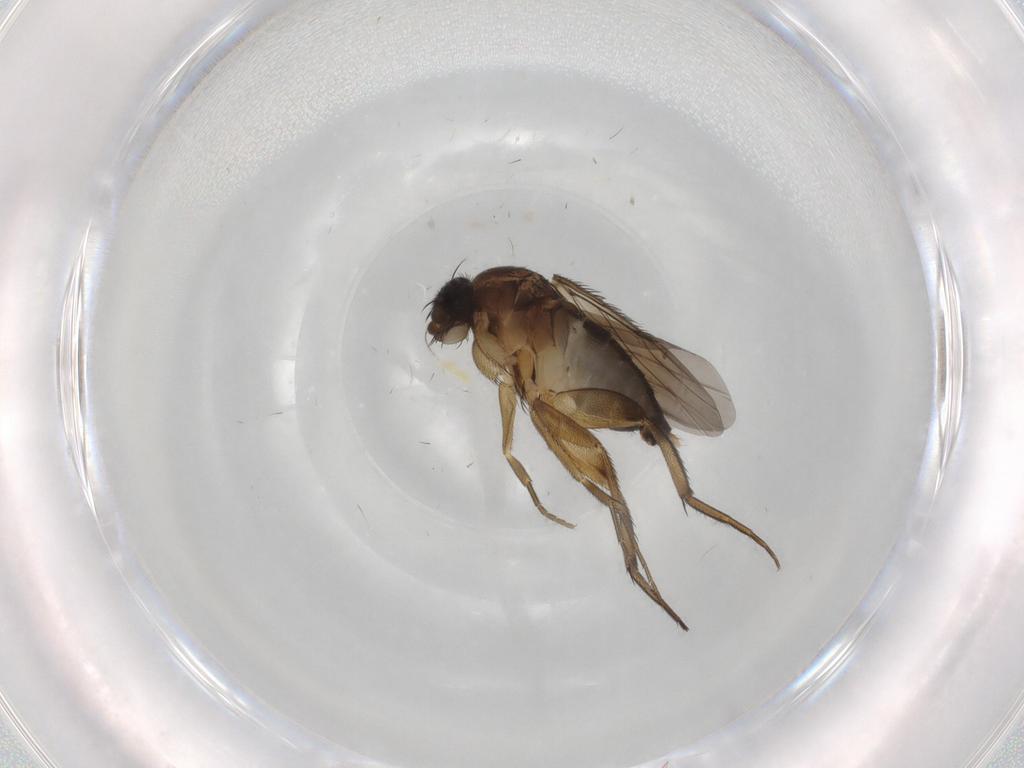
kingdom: Animalia
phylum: Arthropoda
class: Insecta
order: Diptera
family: Phoridae
